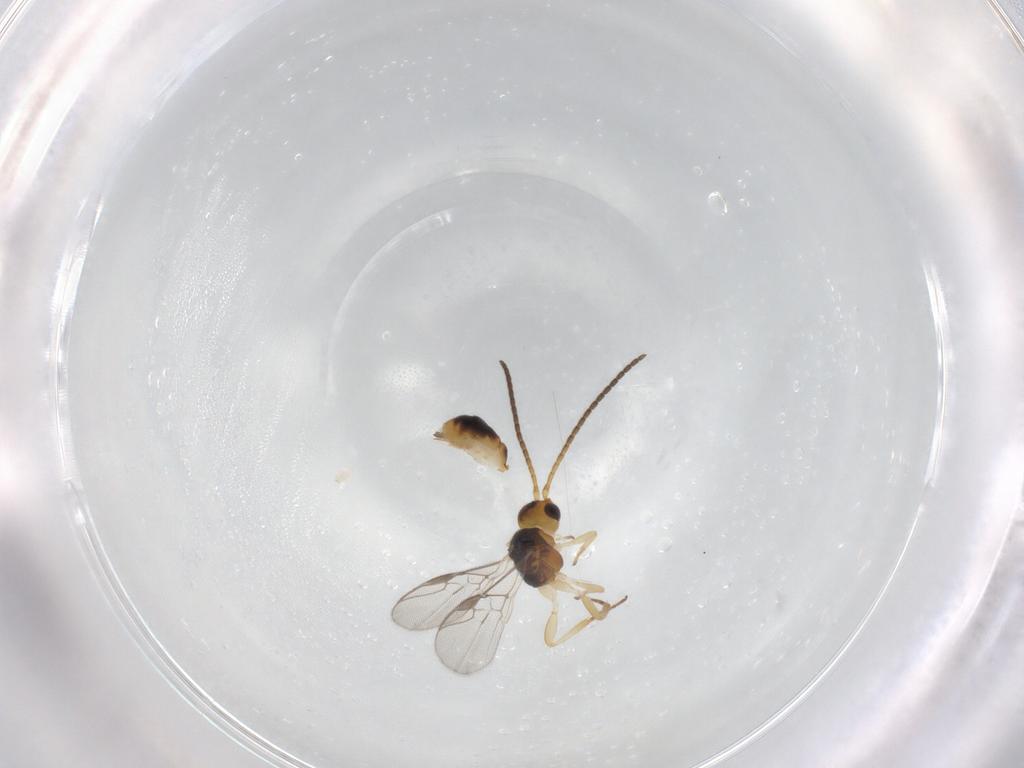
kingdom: Animalia
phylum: Arthropoda
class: Insecta
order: Hymenoptera
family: Braconidae
